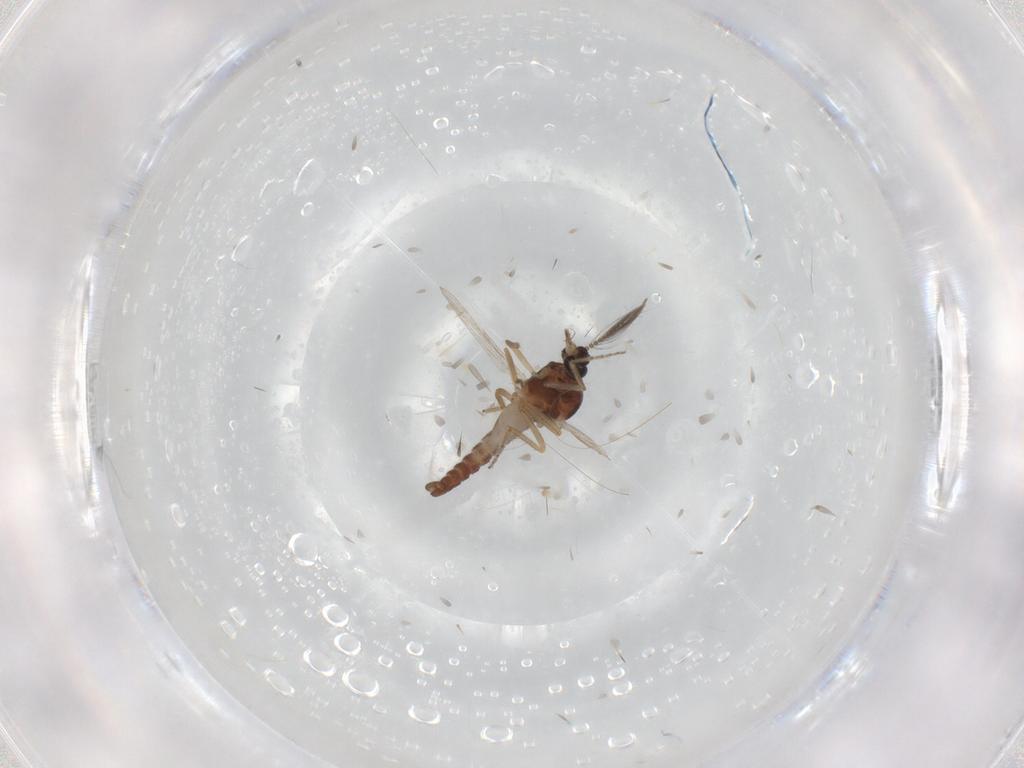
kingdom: Animalia
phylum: Arthropoda
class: Insecta
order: Diptera
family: Ceratopogonidae
